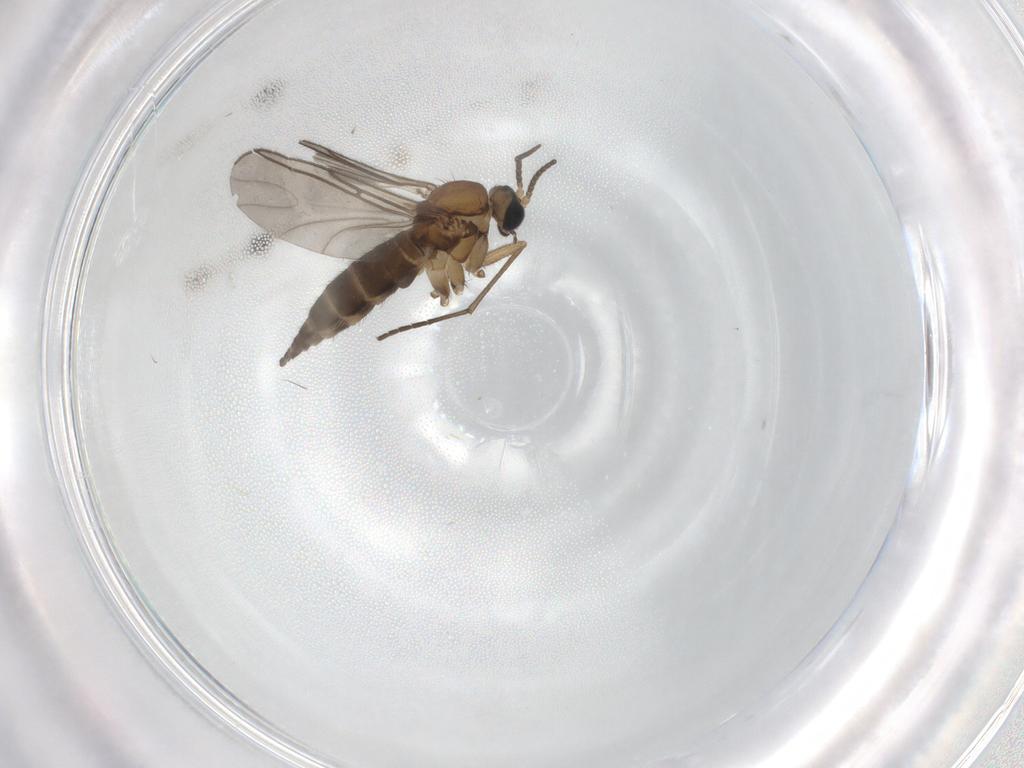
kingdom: Animalia
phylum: Arthropoda
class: Insecta
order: Diptera
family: Sciaridae
